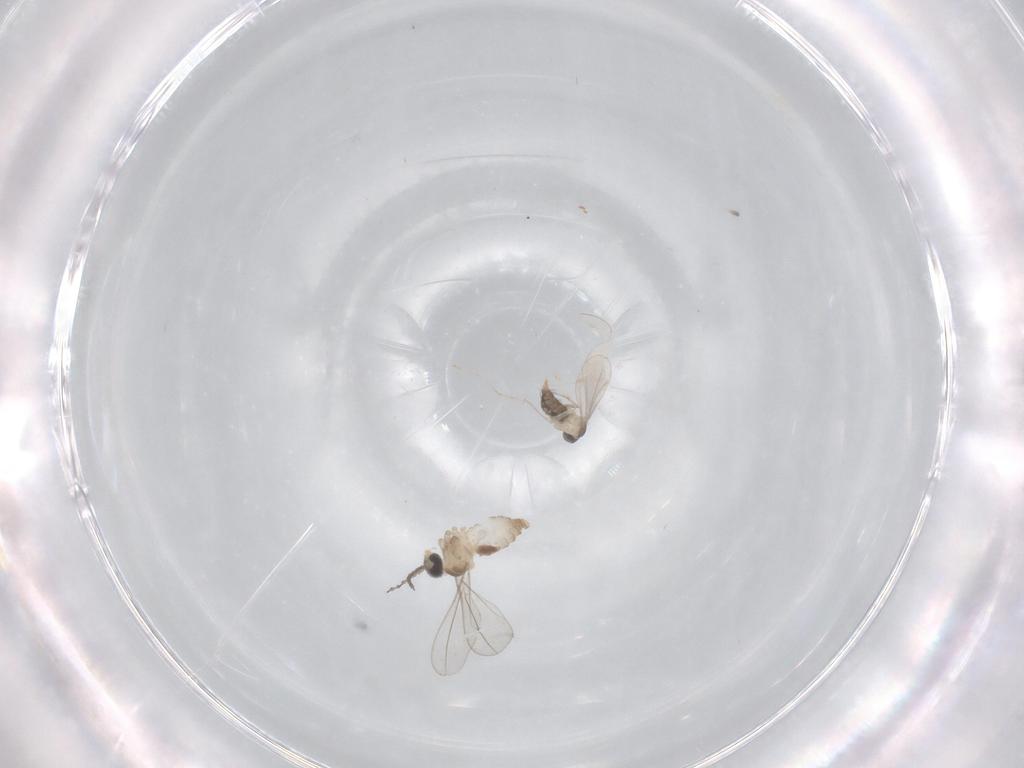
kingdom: Animalia
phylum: Arthropoda
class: Insecta
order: Diptera
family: Cecidomyiidae
